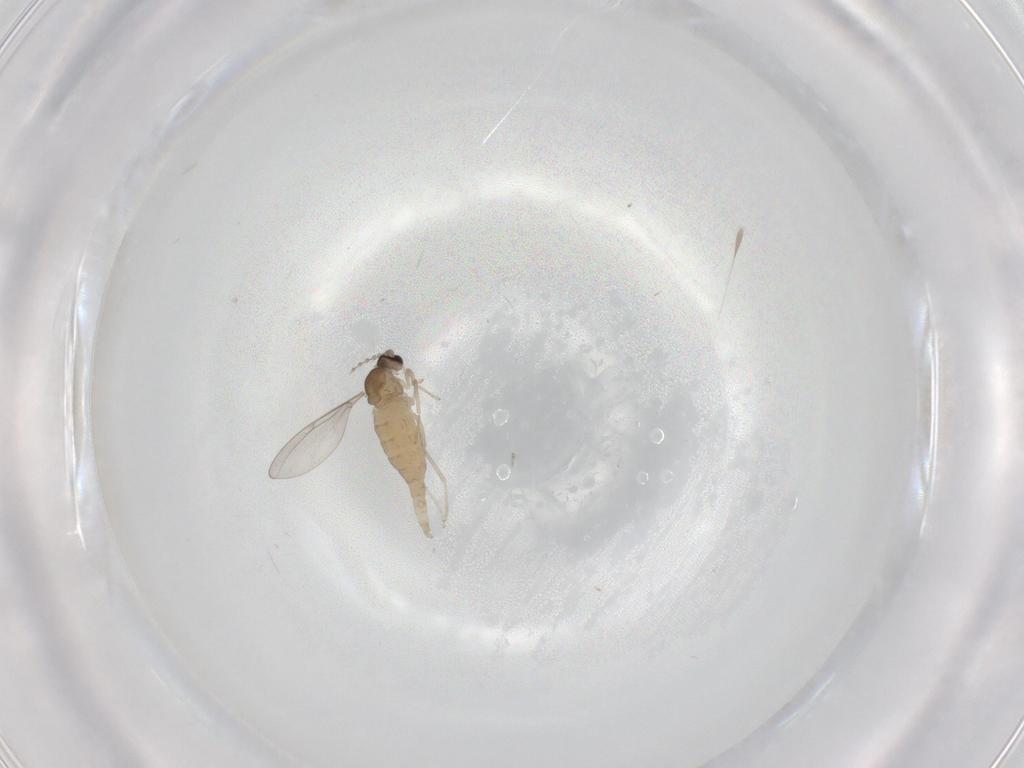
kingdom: Animalia
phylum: Arthropoda
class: Insecta
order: Diptera
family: Cecidomyiidae
